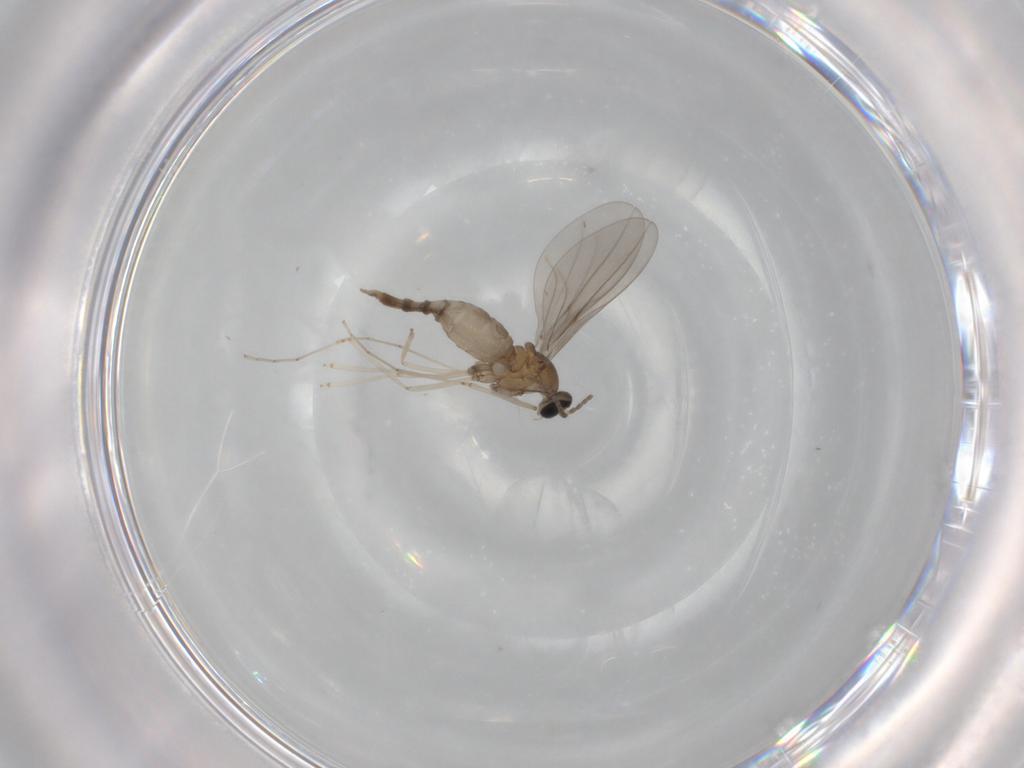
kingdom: Animalia
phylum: Arthropoda
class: Insecta
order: Diptera
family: Cecidomyiidae
